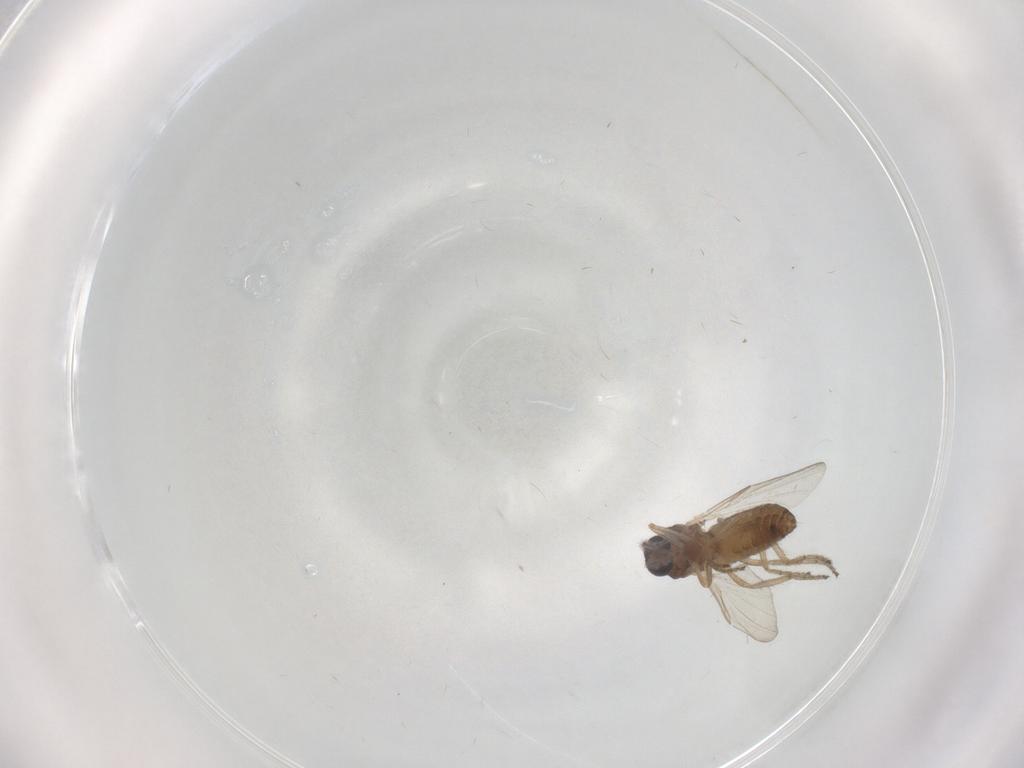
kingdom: Animalia
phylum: Arthropoda
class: Insecta
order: Diptera
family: Ceratopogonidae
